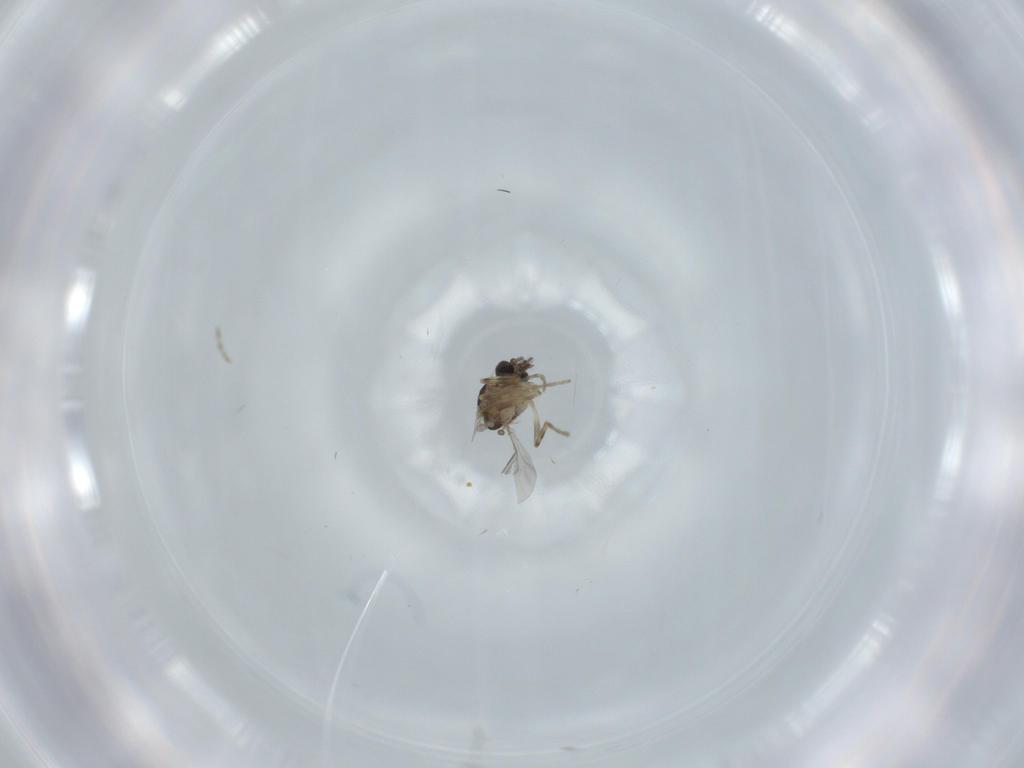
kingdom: Animalia
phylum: Arthropoda
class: Insecta
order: Diptera
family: Ceratopogonidae
